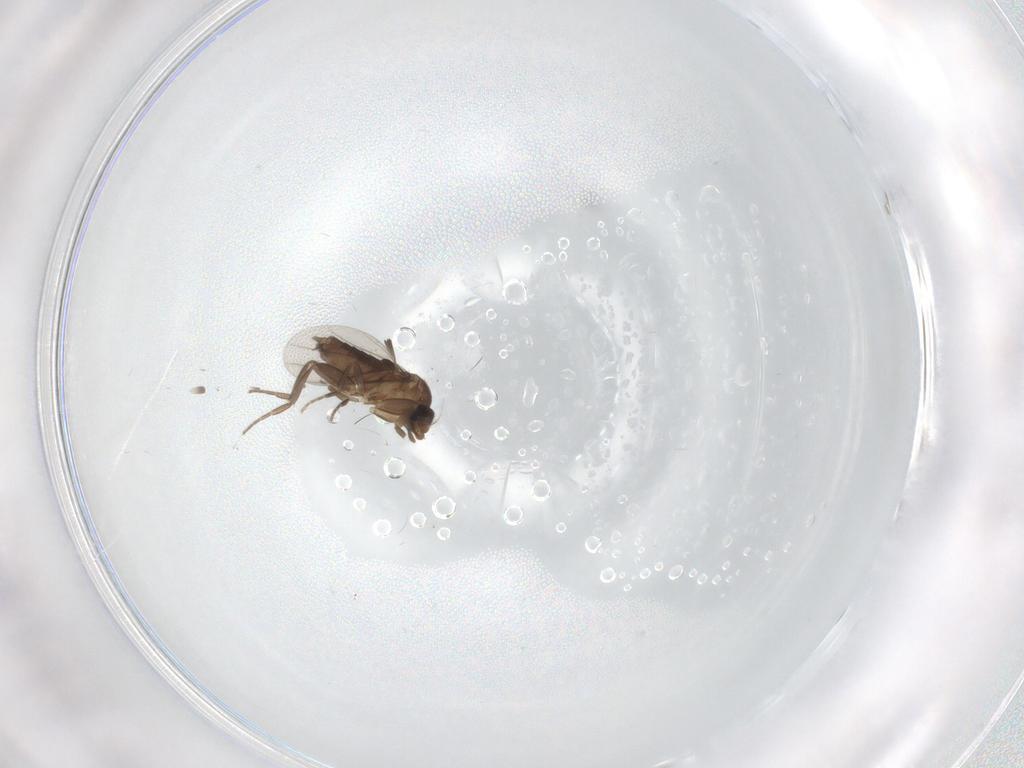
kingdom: Animalia
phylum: Arthropoda
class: Insecta
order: Diptera
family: Phoridae
